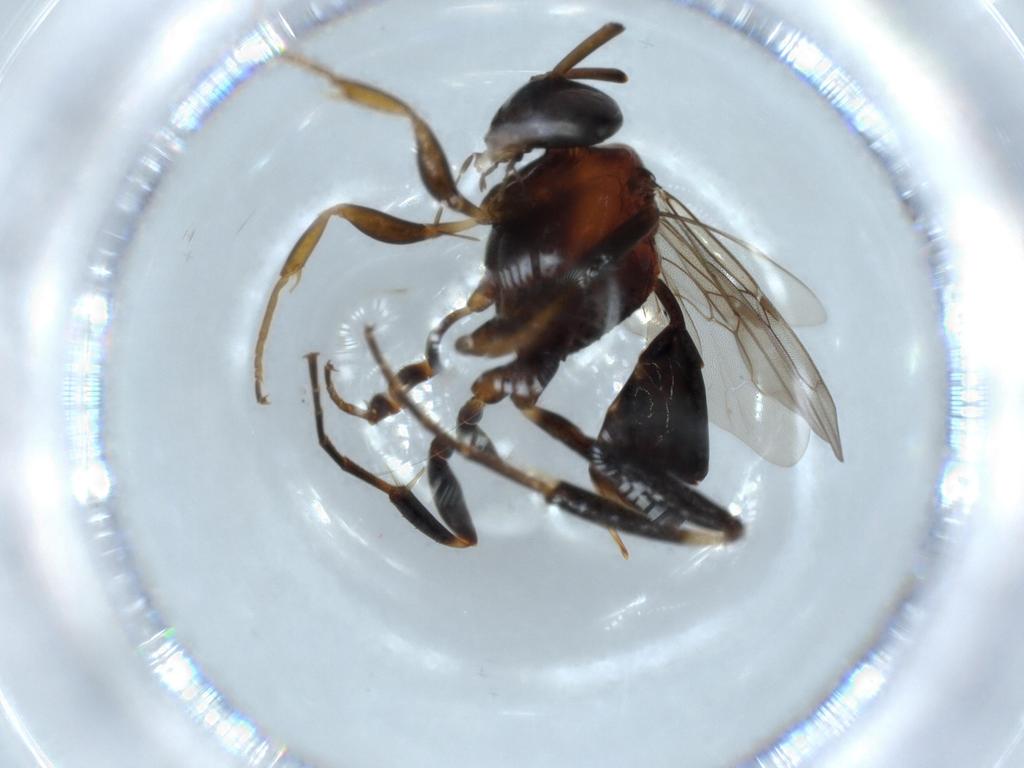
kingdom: Animalia
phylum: Arthropoda
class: Insecta
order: Hymenoptera
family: Evaniidae
